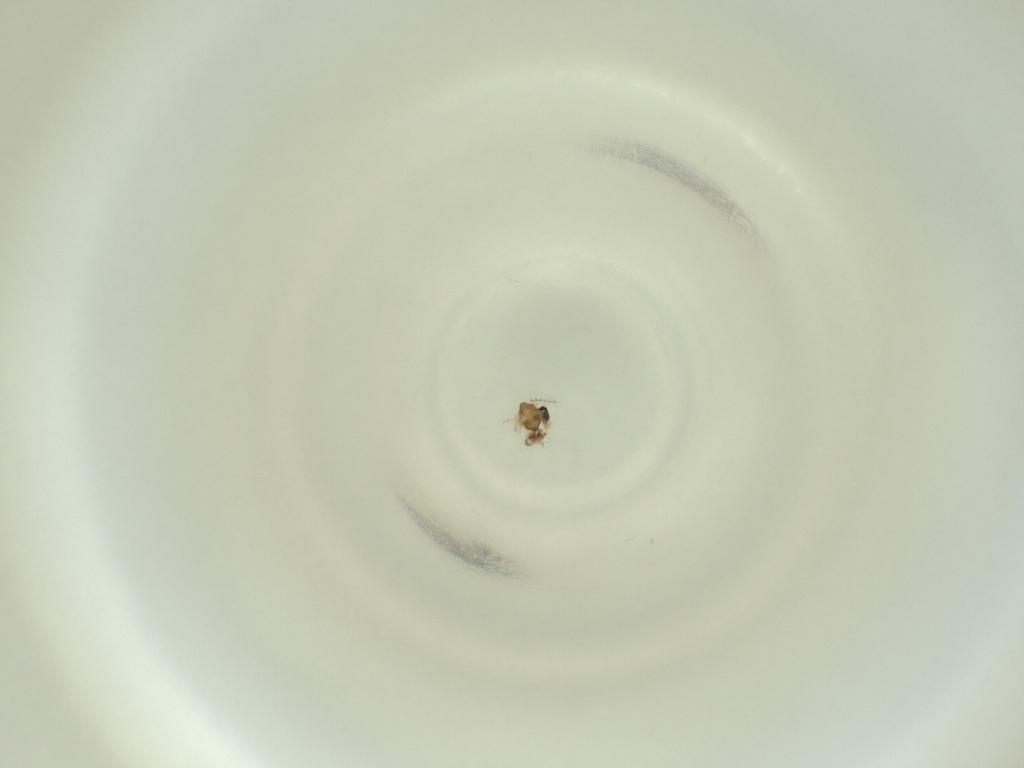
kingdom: Animalia
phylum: Arthropoda
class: Insecta
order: Diptera
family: Cecidomyiidae
